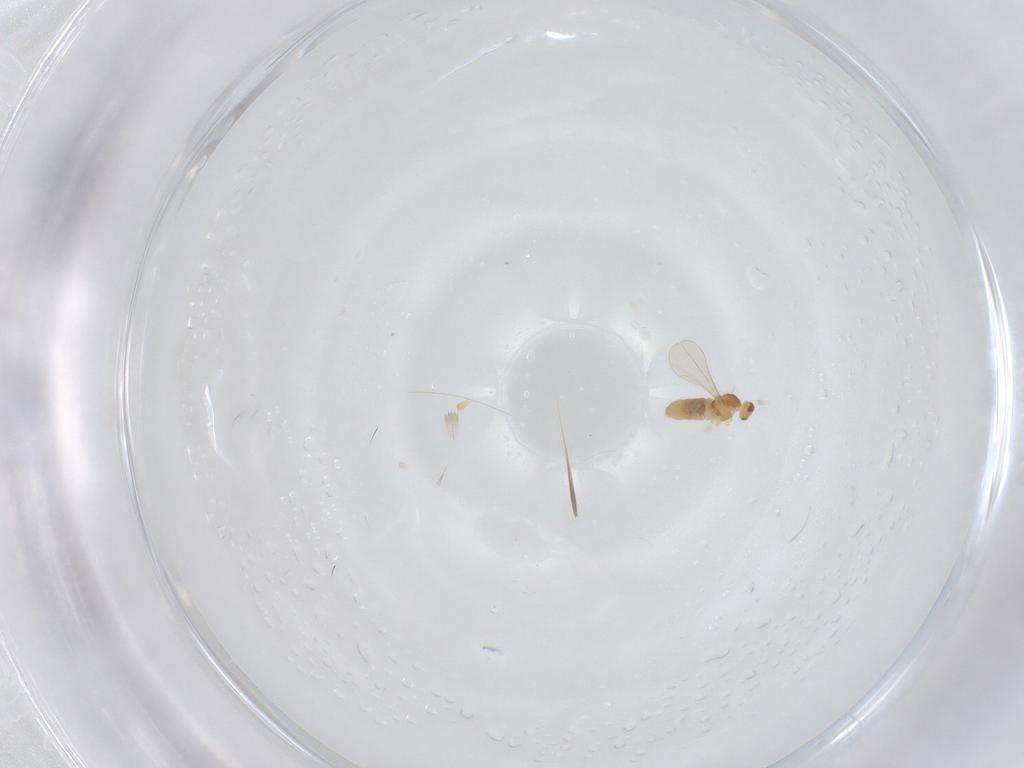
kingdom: Animalia
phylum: Arthropoda
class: Insecta
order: Diptera
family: Cecidomyiidae
